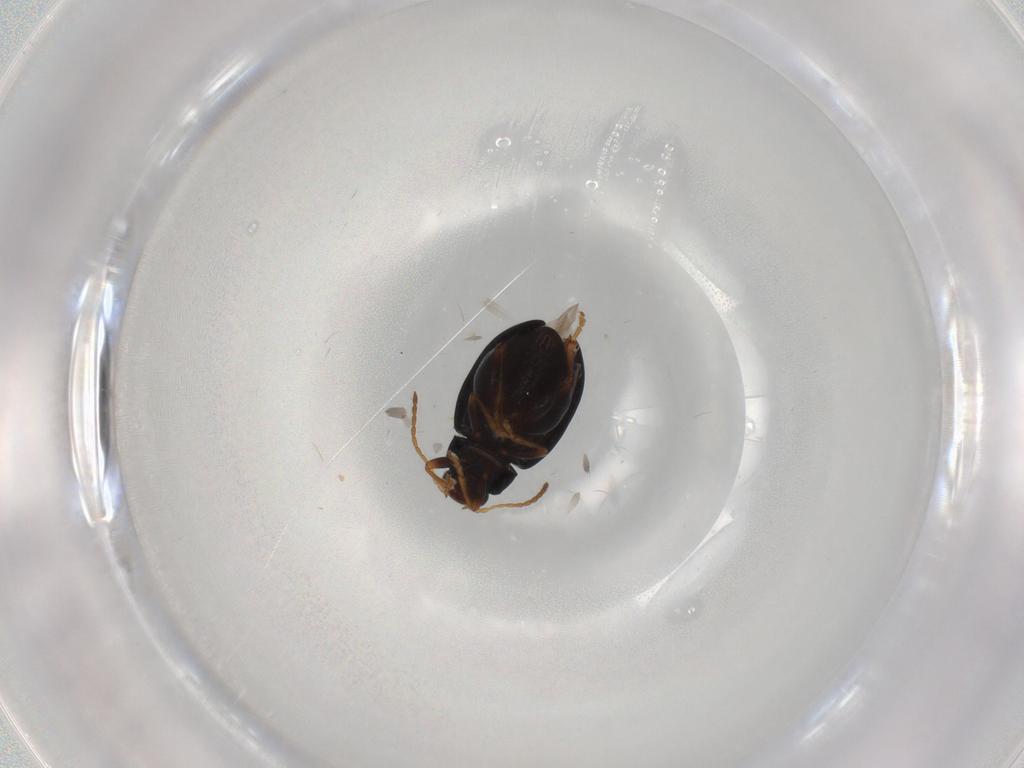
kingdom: Animalia
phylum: Arthropoda
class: Insecta
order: Coleoptera
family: Chrysomelidae
